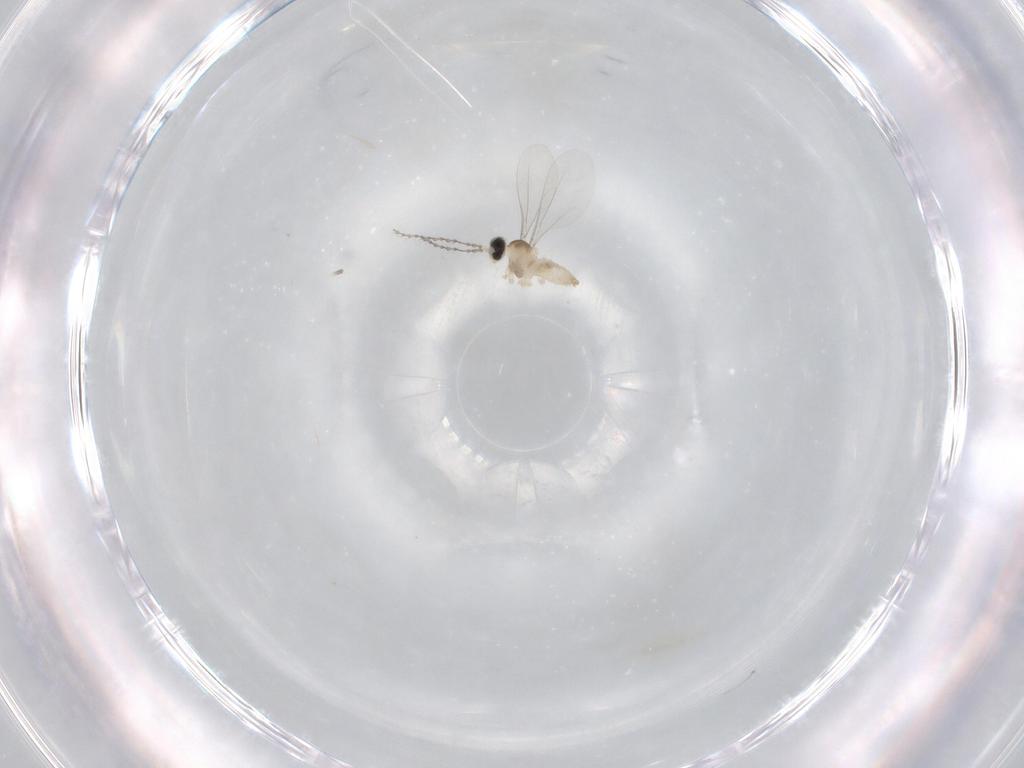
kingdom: Animalia
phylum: Arthropoda
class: Insecta
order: Diptera
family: Cecidomyiidae
